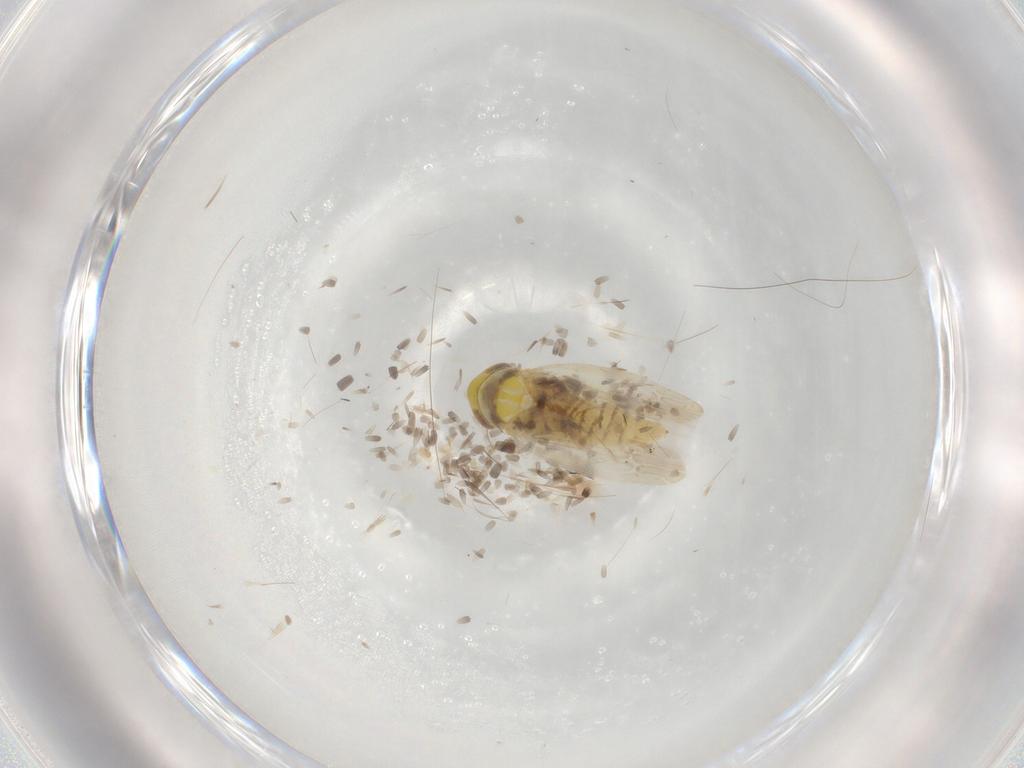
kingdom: Animalia
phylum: Arthropoda
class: Insecta
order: Hemiptera
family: Cicadellidae
